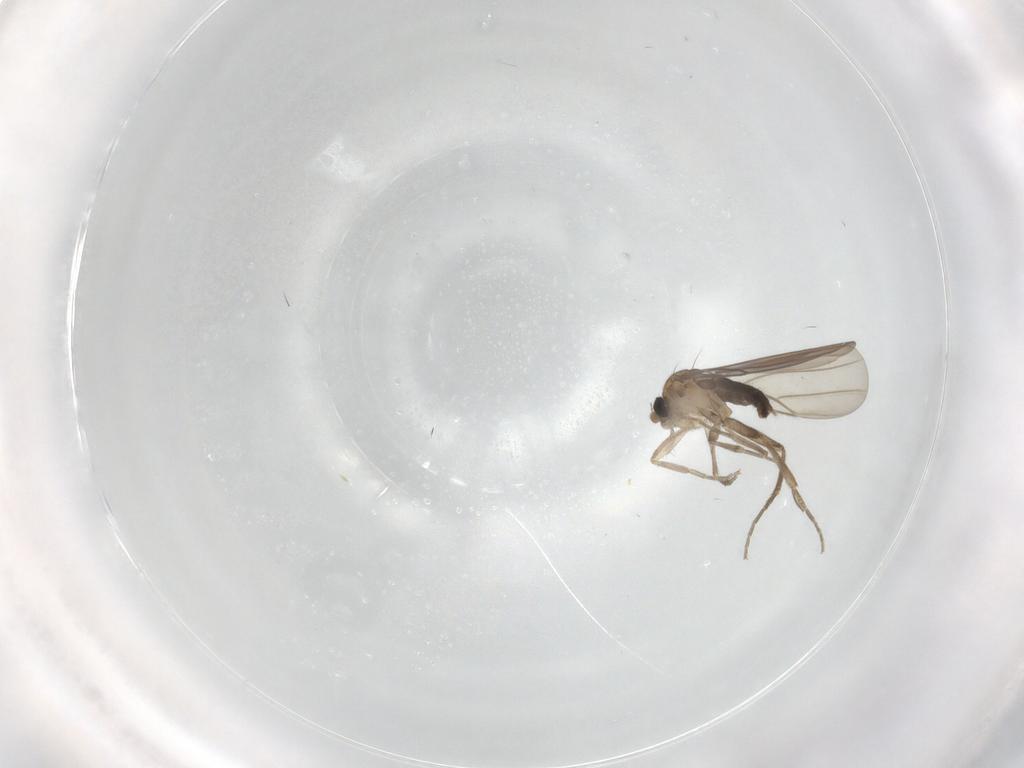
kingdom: Animalia
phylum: Arthropoda
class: Insecta
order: Diptera
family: Phoridae
